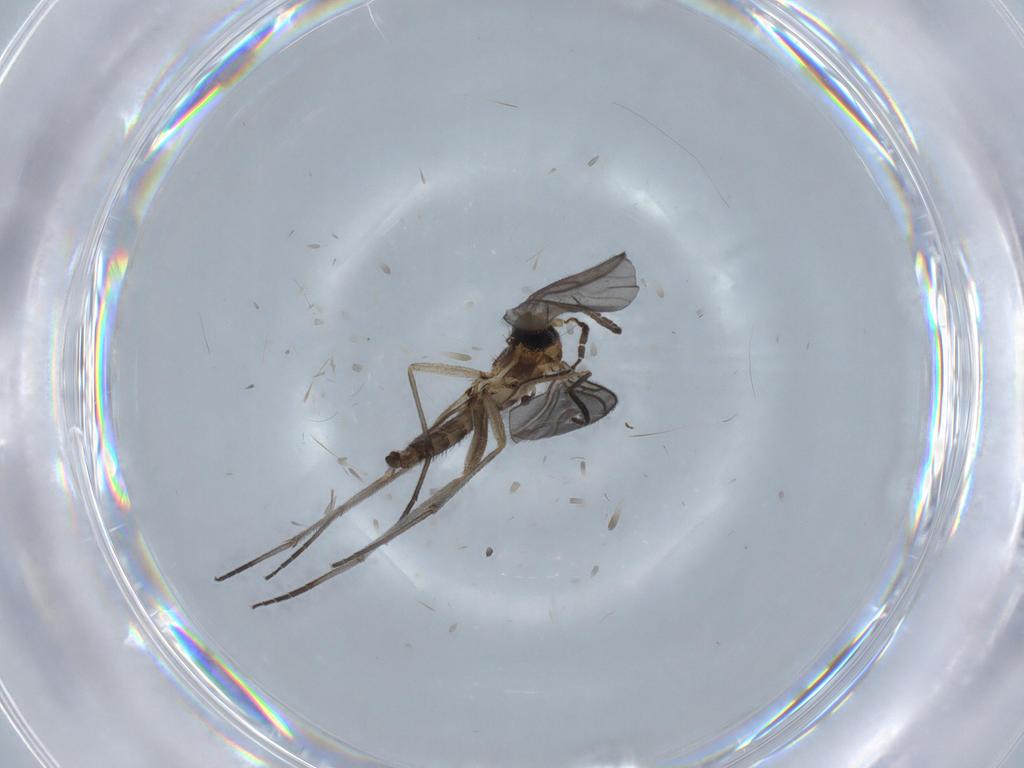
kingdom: Animalia
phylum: Arthropoda
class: Insecta
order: Diptera
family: Sciaridae
